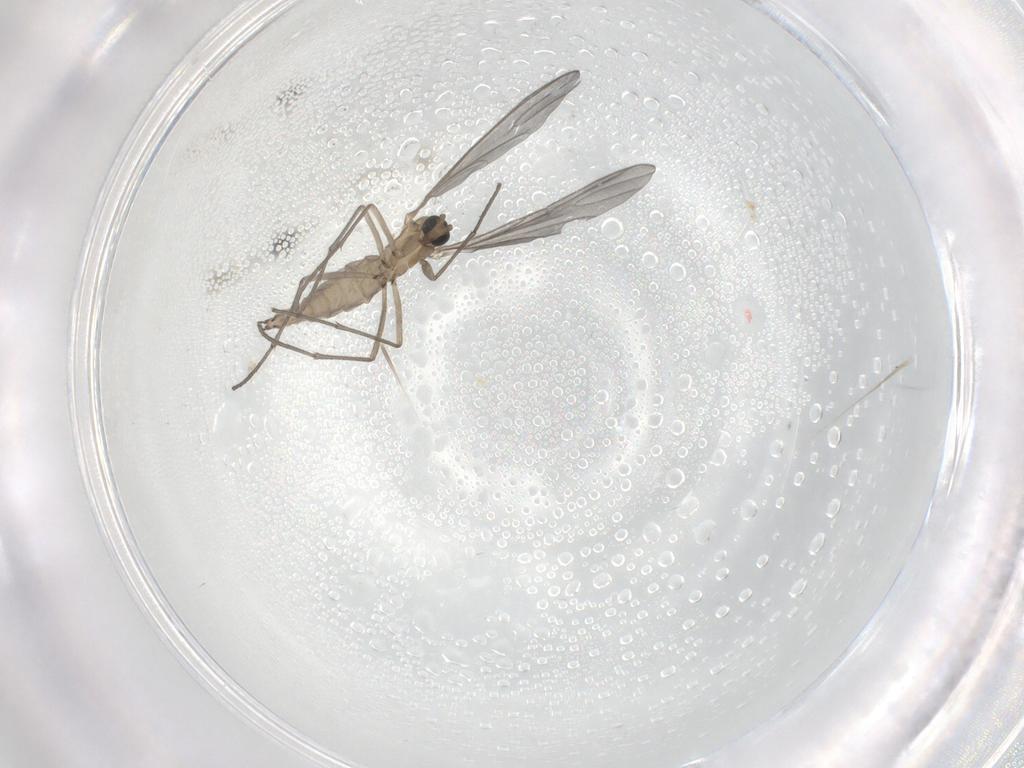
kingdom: Animalia
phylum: Arthropoda
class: Insecta
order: Diptera
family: Sciaridae
